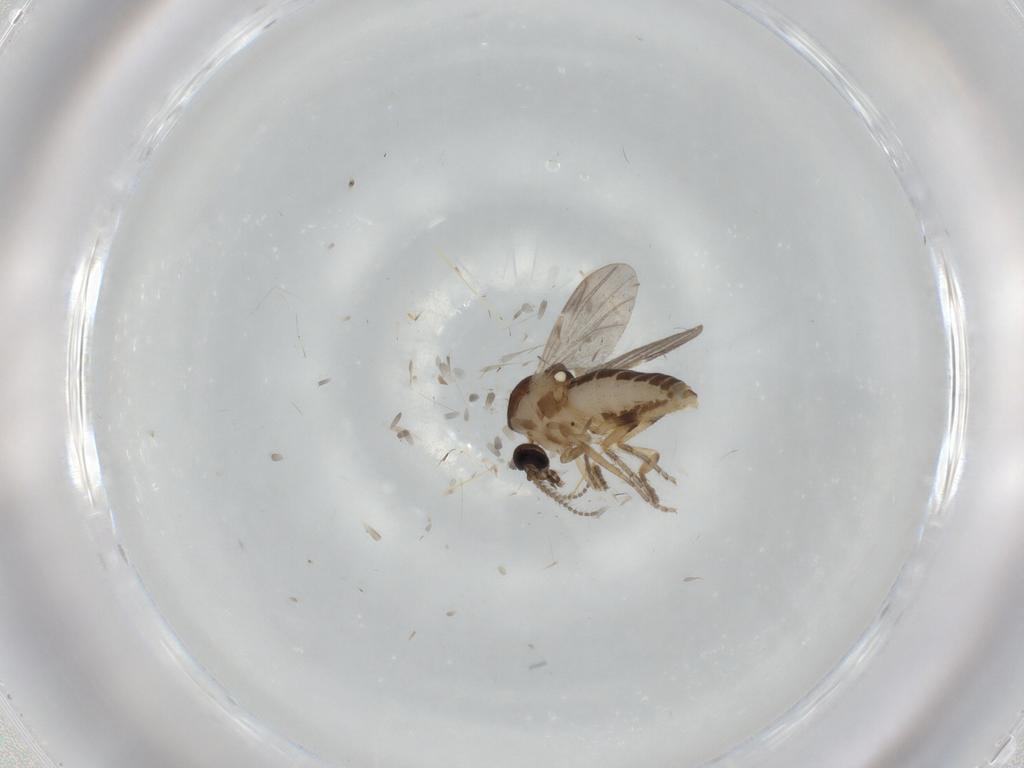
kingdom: Animalia
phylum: Arthropoda
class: Insecta
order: Diptera
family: Ceratopogonidae
